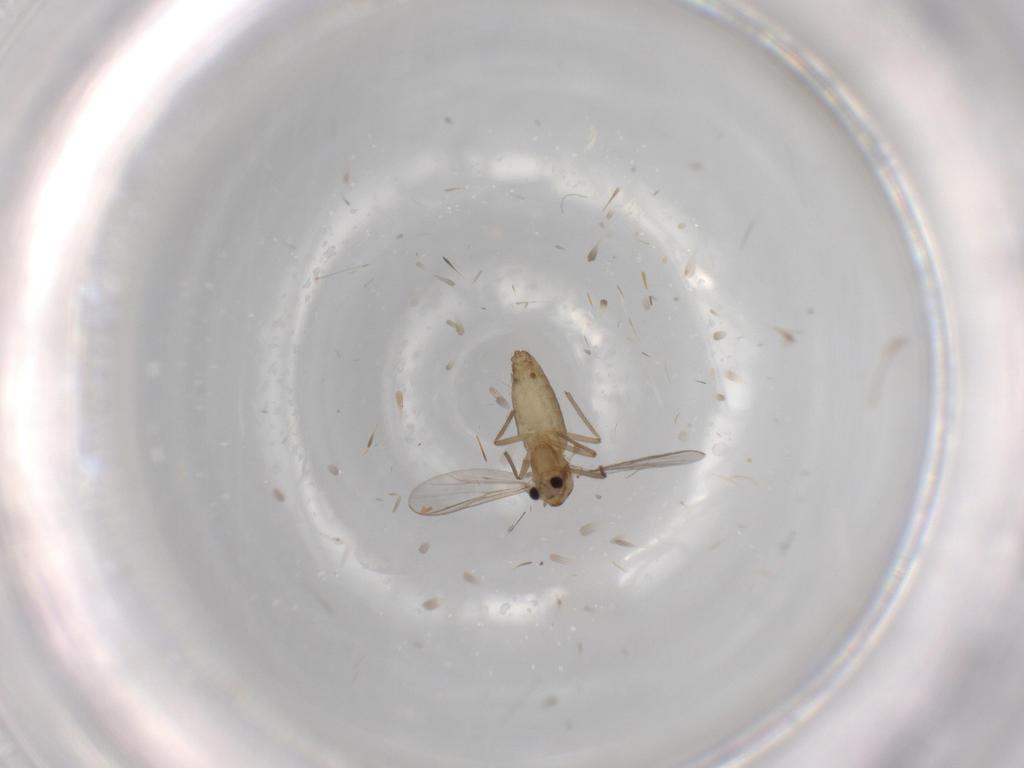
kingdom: Animalia
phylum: Arthropoda
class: Insecta
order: Diptera
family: Chironomidae
